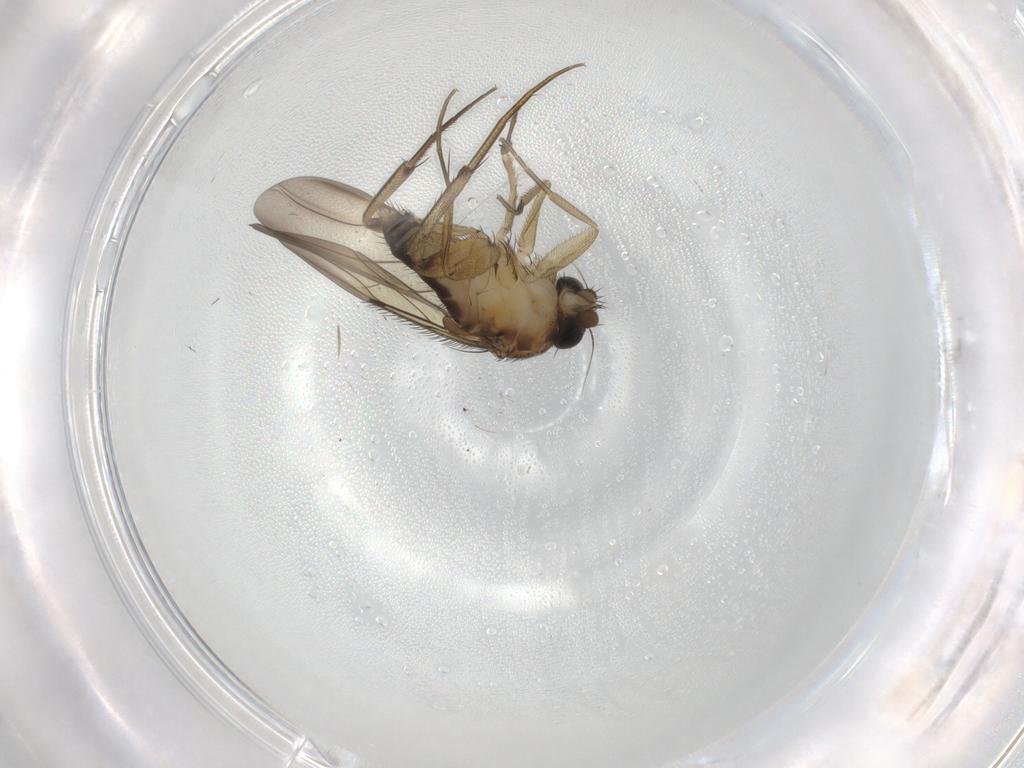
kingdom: Animalia
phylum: Arthropoda
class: Insecta
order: Diptera
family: Phoridae
